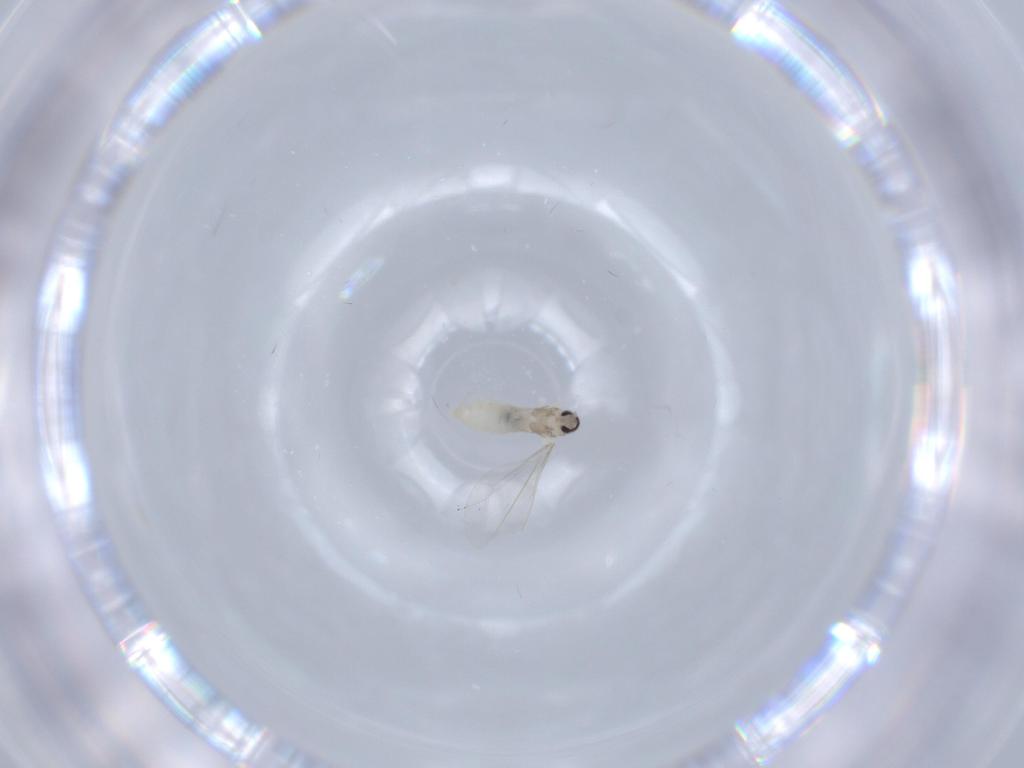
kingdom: Animalia
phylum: Arthropoda
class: Insecta
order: Diptera
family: Cecidomyiidae
